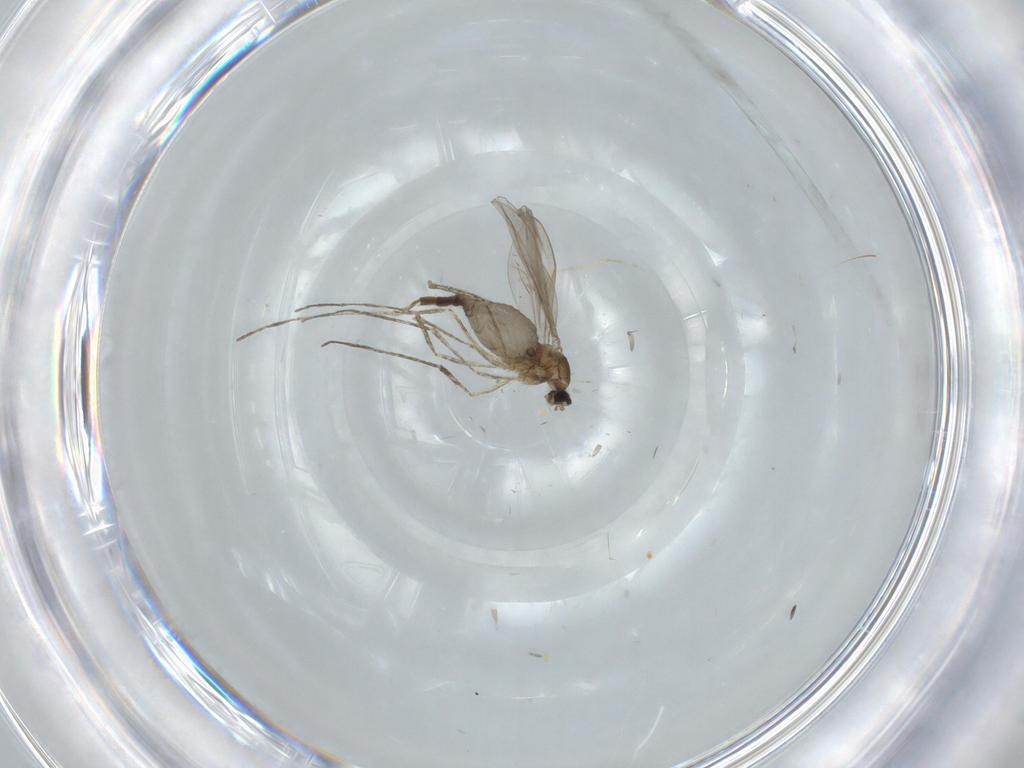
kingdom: Animalia
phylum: Arthropoda
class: Insecta
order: Diptera
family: Cecidomyiidae
